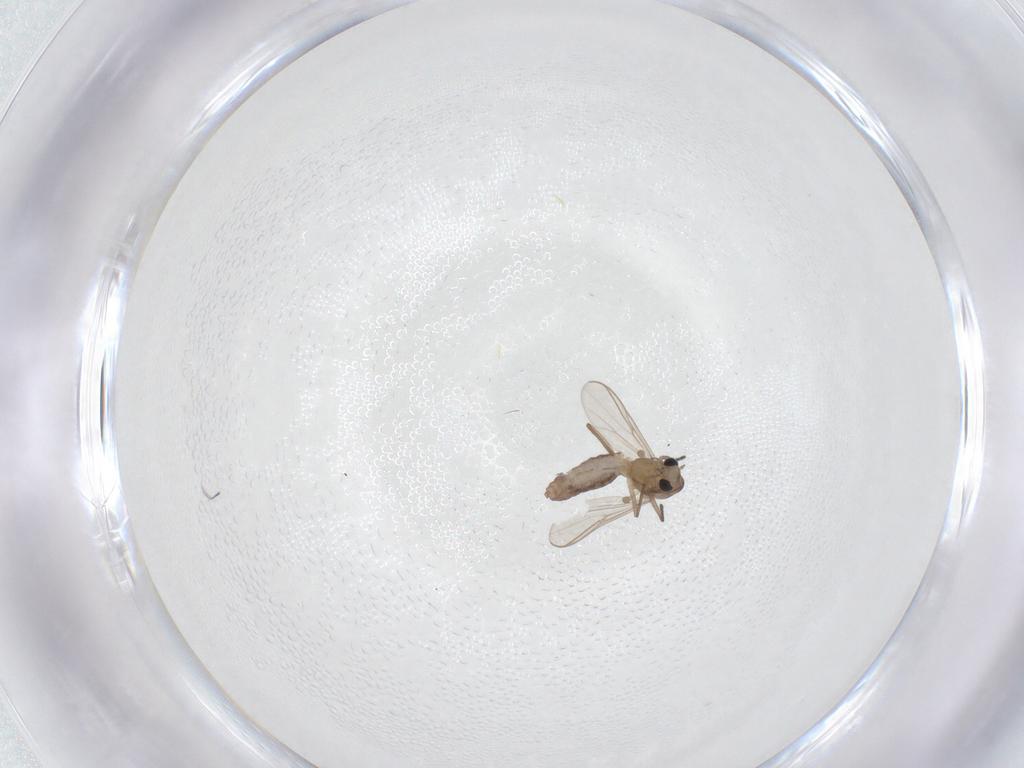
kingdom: Animalia
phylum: Arthropoda
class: Insecta
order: Diptera
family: Chironomidae
